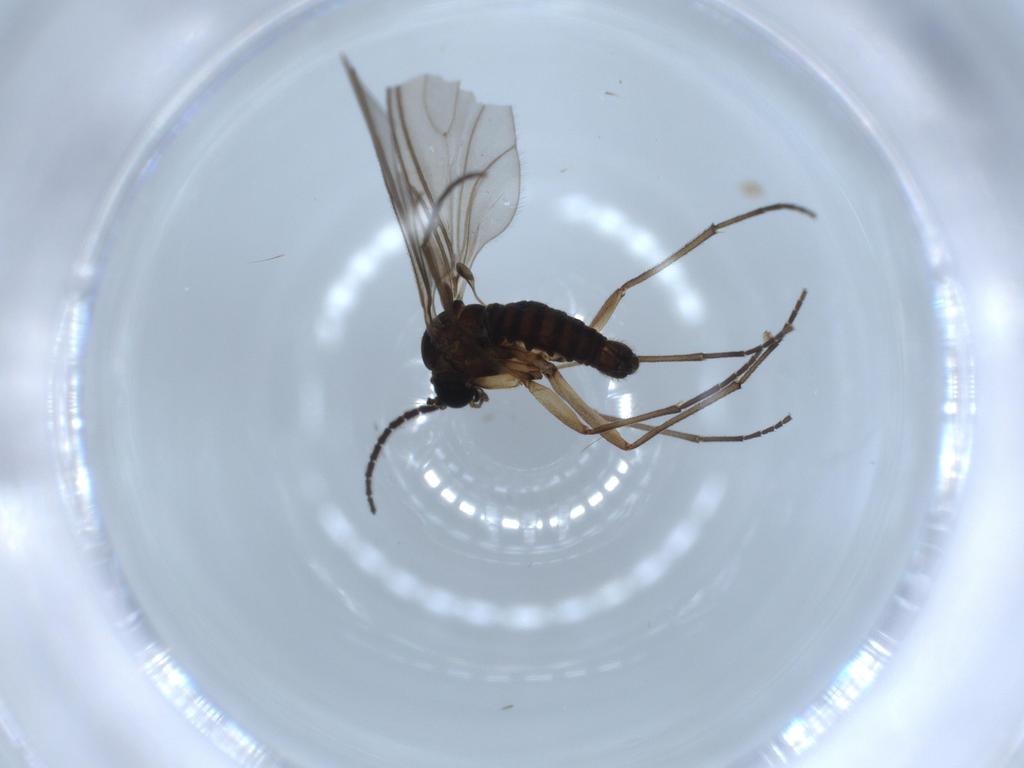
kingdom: Animalia
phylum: Arthropoda
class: Insecta
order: Diptera
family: Sciaridae
